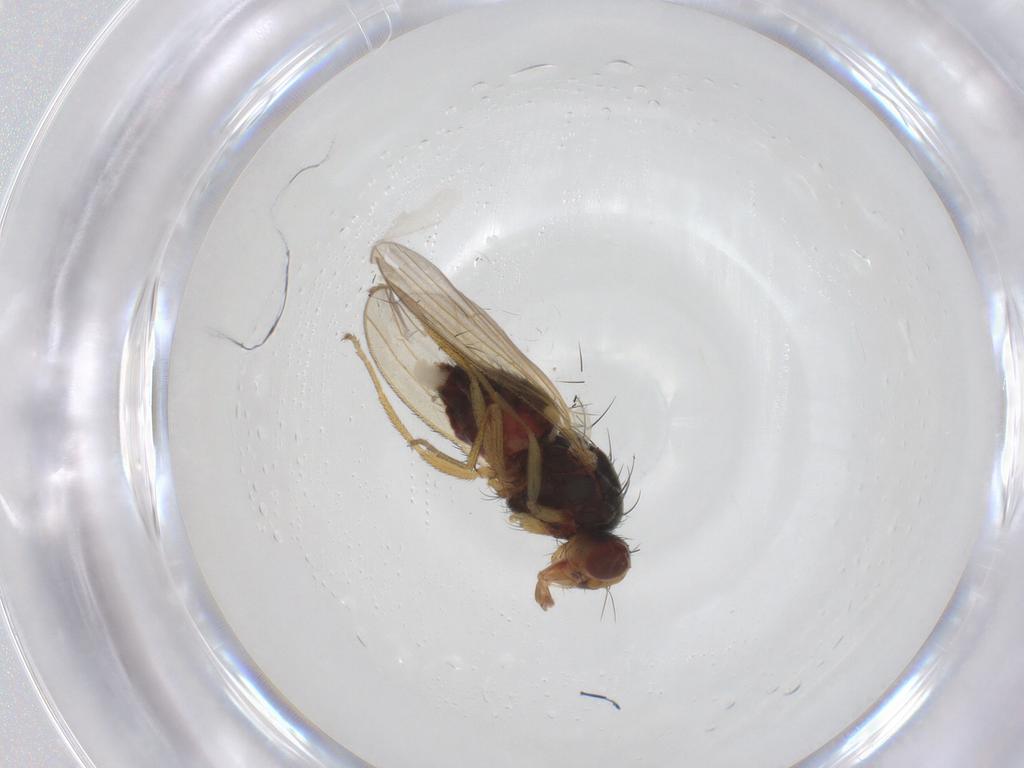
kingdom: Animalia
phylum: Arthropoda
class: Insecta
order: Diptera
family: Heleomyzidae
